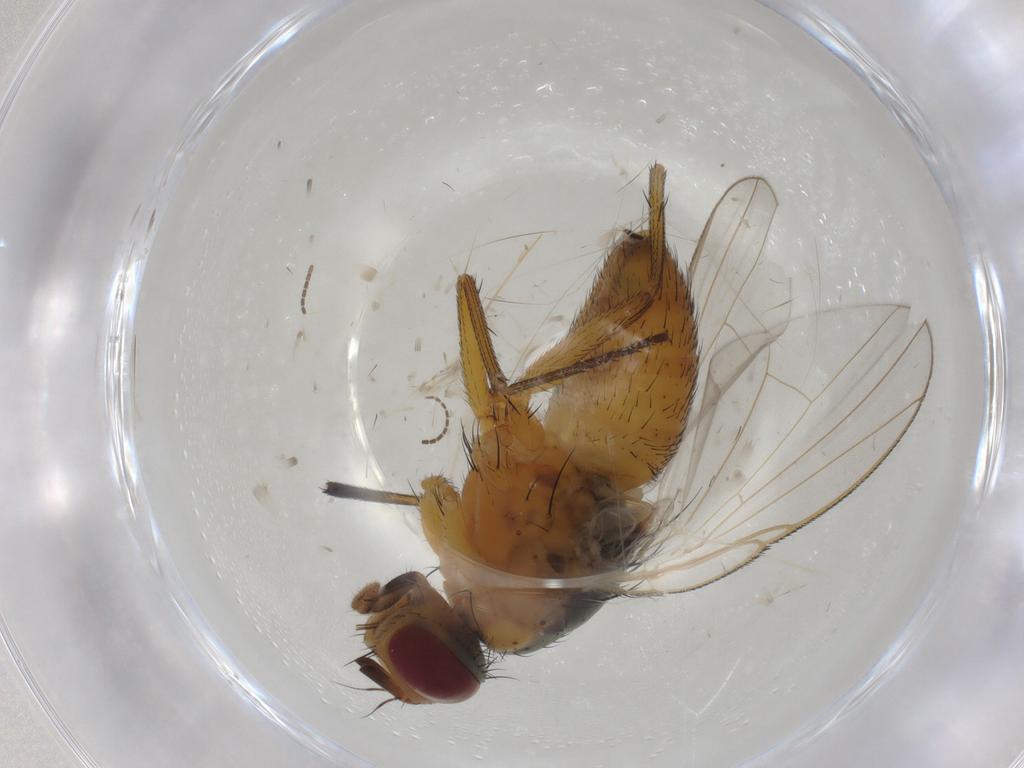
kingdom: Animalia
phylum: Arthropoda
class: Insecta
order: Diptera
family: Muscidae
